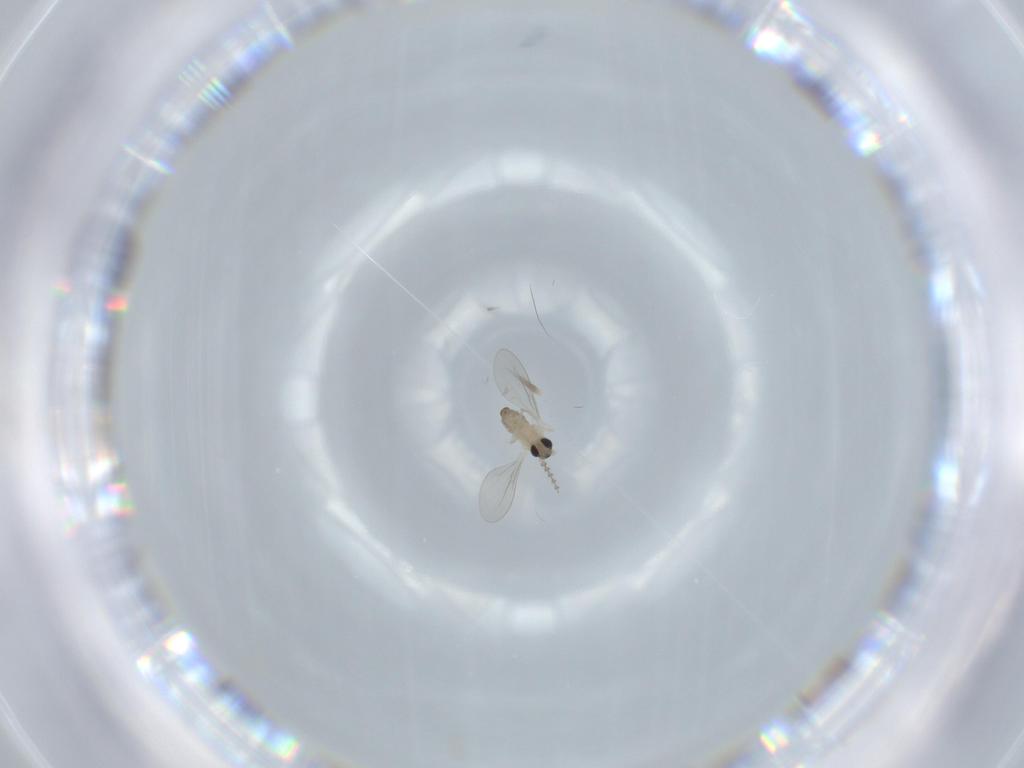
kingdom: Animalia
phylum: Arthropoda
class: Insecta
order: Diptera
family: Cecidomyiidae
